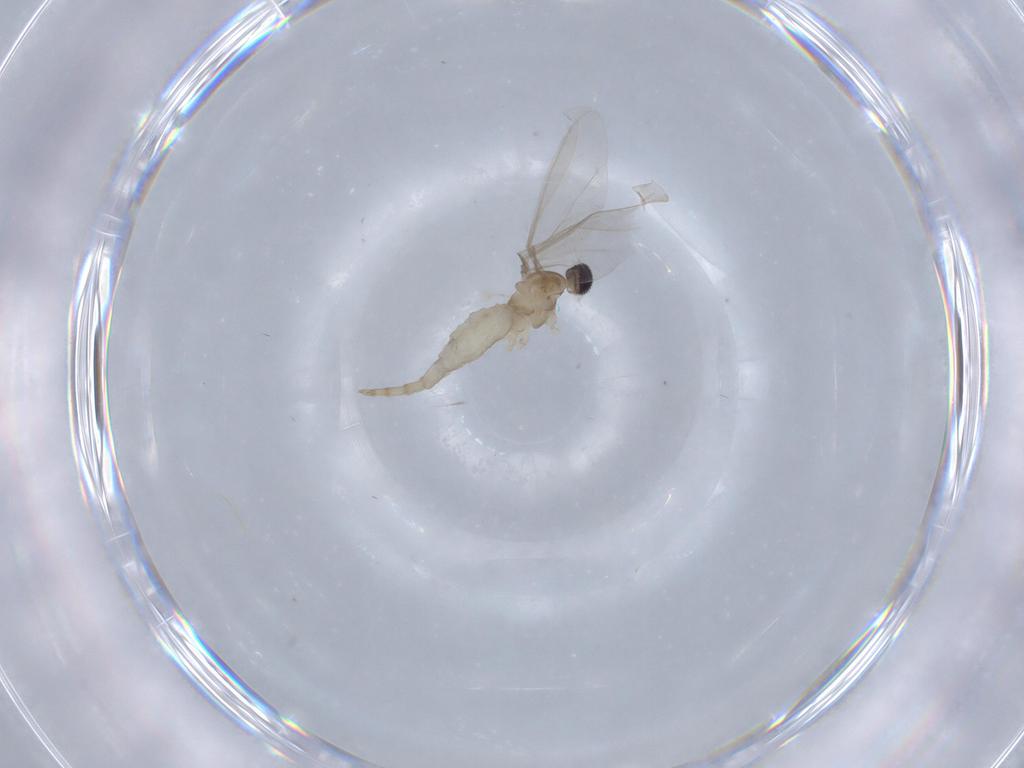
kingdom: Animalia
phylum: Arthropoda
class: Insecta
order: Diptera
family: Cecidomyiidae
